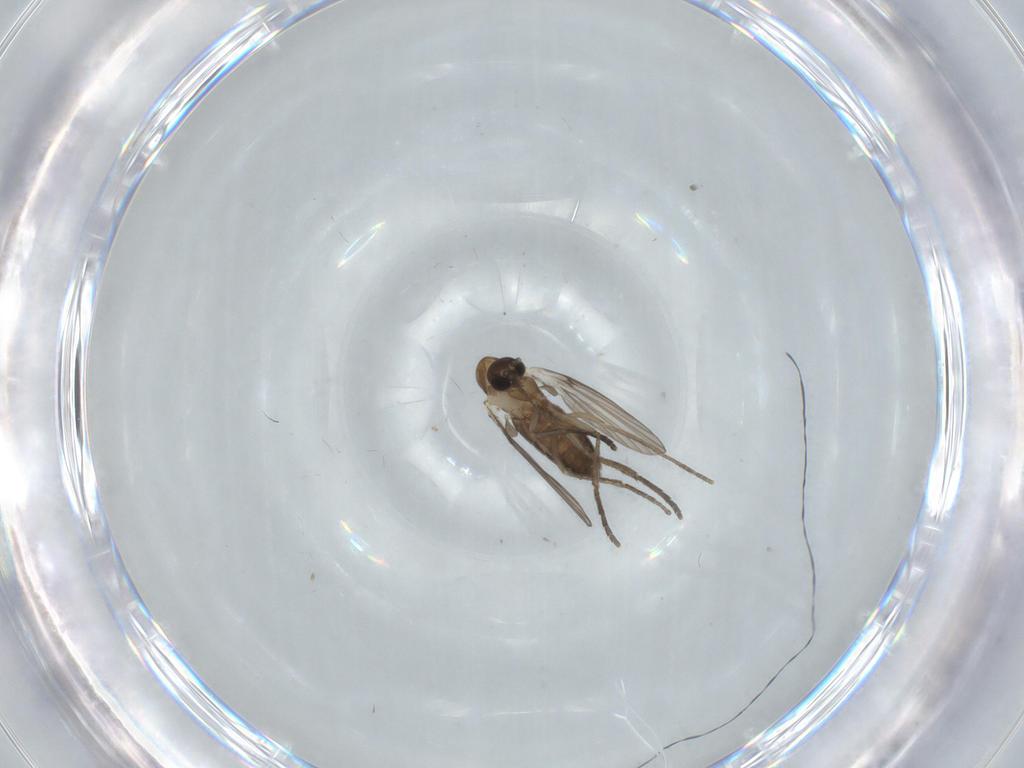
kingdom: Animalia
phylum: Arthropoda
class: Insecta
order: Diptera
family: Psychodidae
